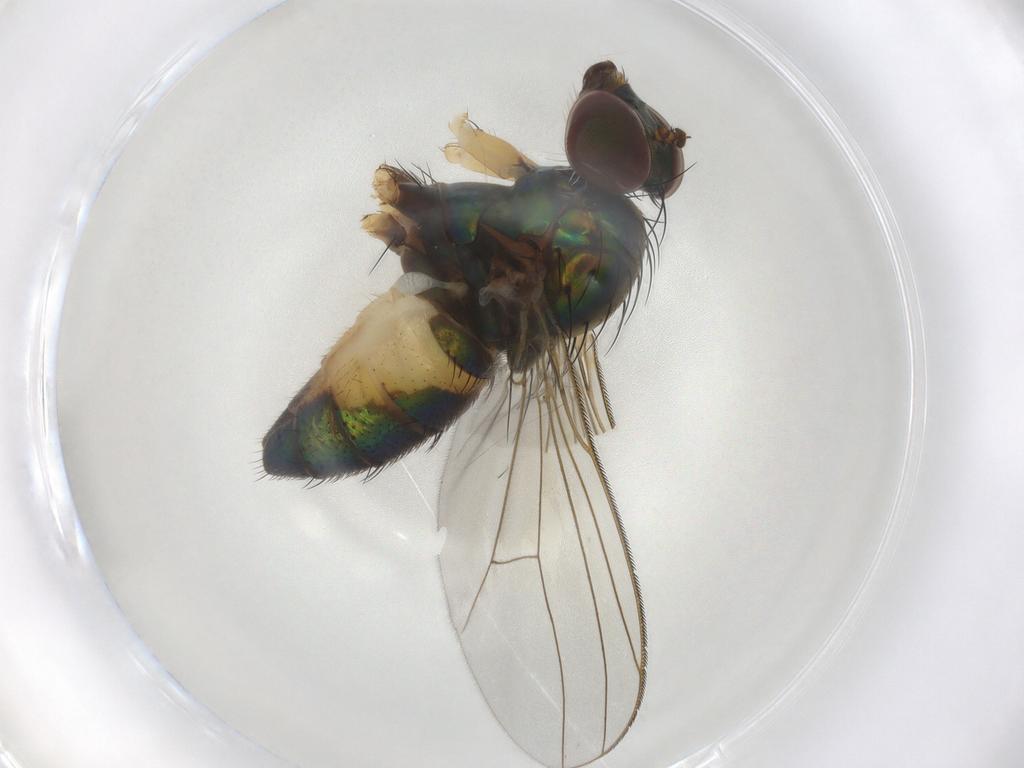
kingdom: Animalia
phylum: Arthropoda
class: Insecta
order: Diptera
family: Dolichopodidae
